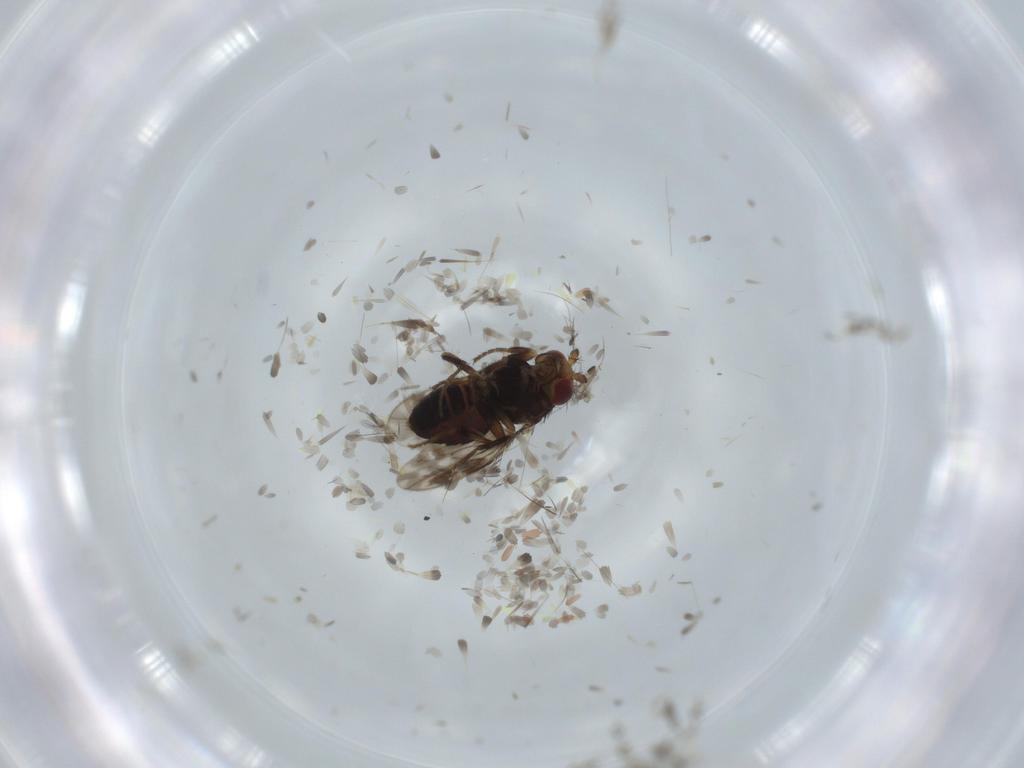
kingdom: Animalia
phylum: Arthropoda
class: Insecta
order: Diptera
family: Cecidomyiidae
